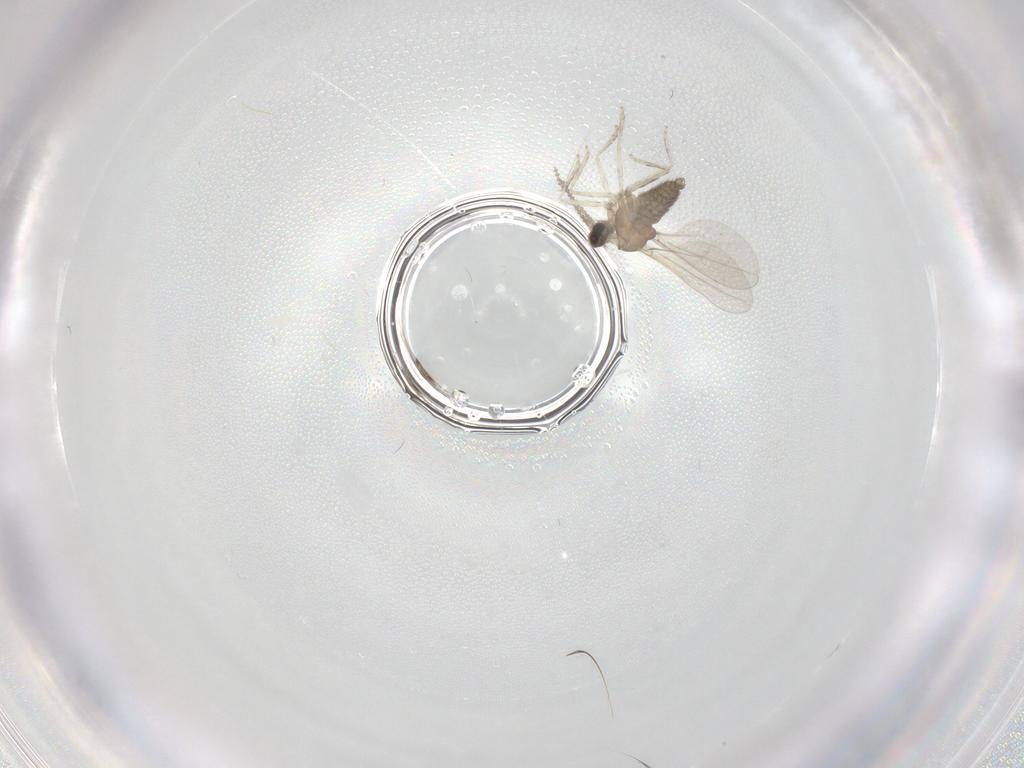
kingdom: Animalia
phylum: Arthropoda
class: Insecta
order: Diptera
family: Cecidomyiidae
